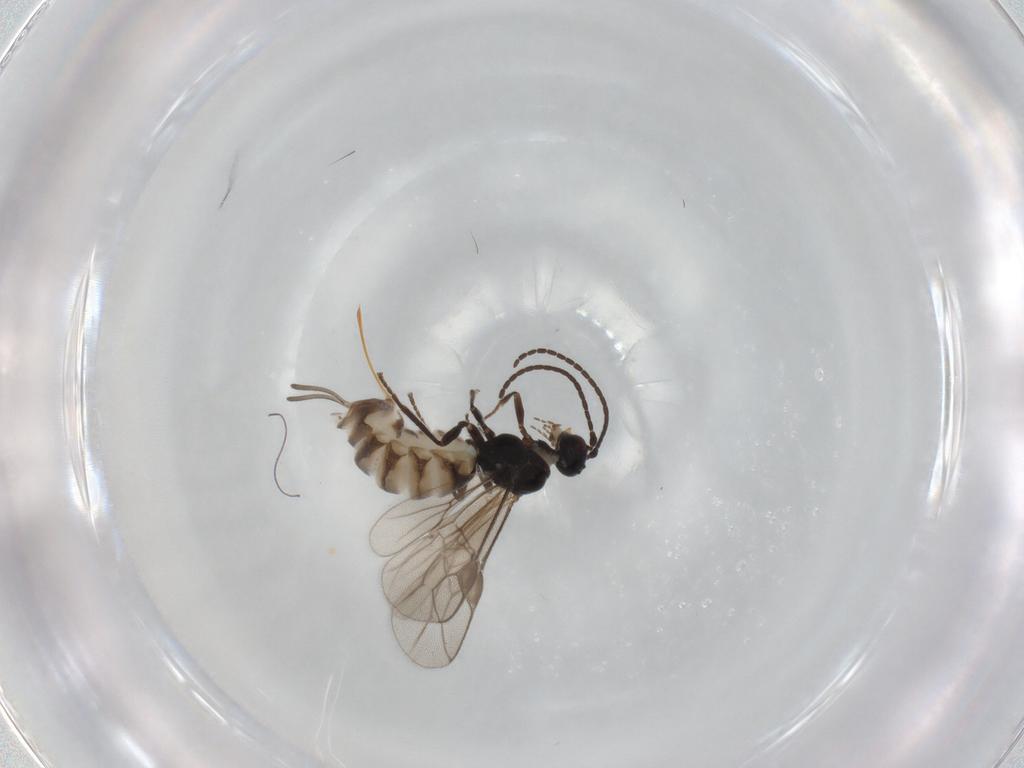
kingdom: Animalia
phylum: Arthropoda
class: Insecta
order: Hymenoptera
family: Braconidae
